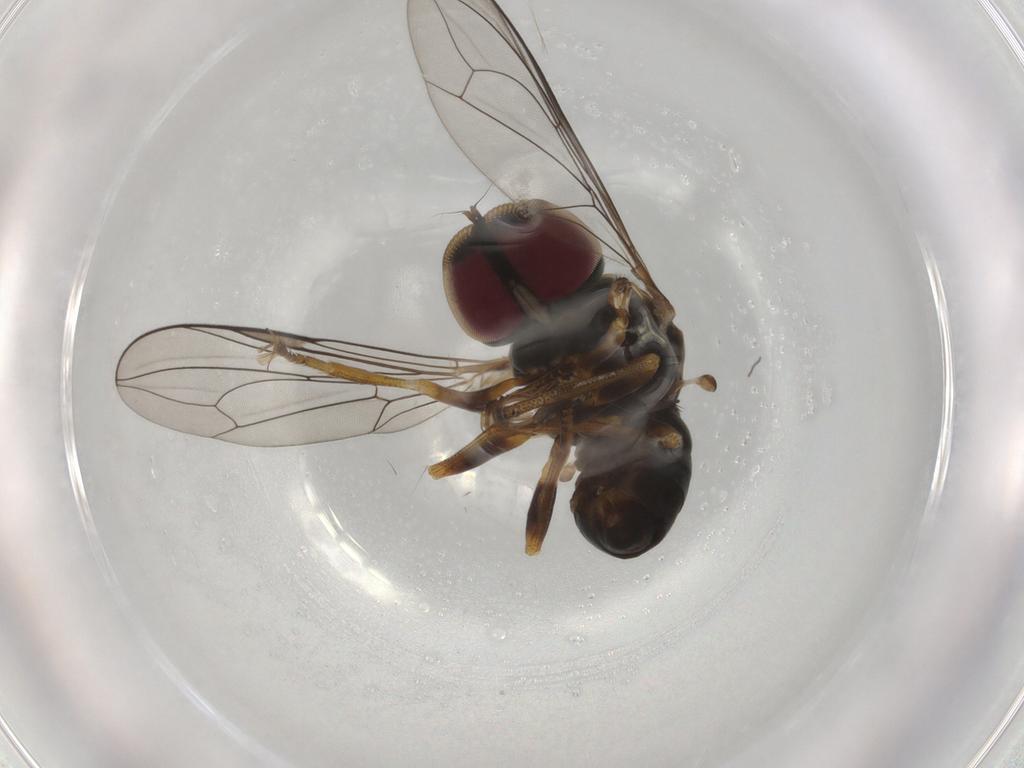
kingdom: Animalia
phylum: Arthropoda
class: Insecta
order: Diptera
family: Pipunculidae
